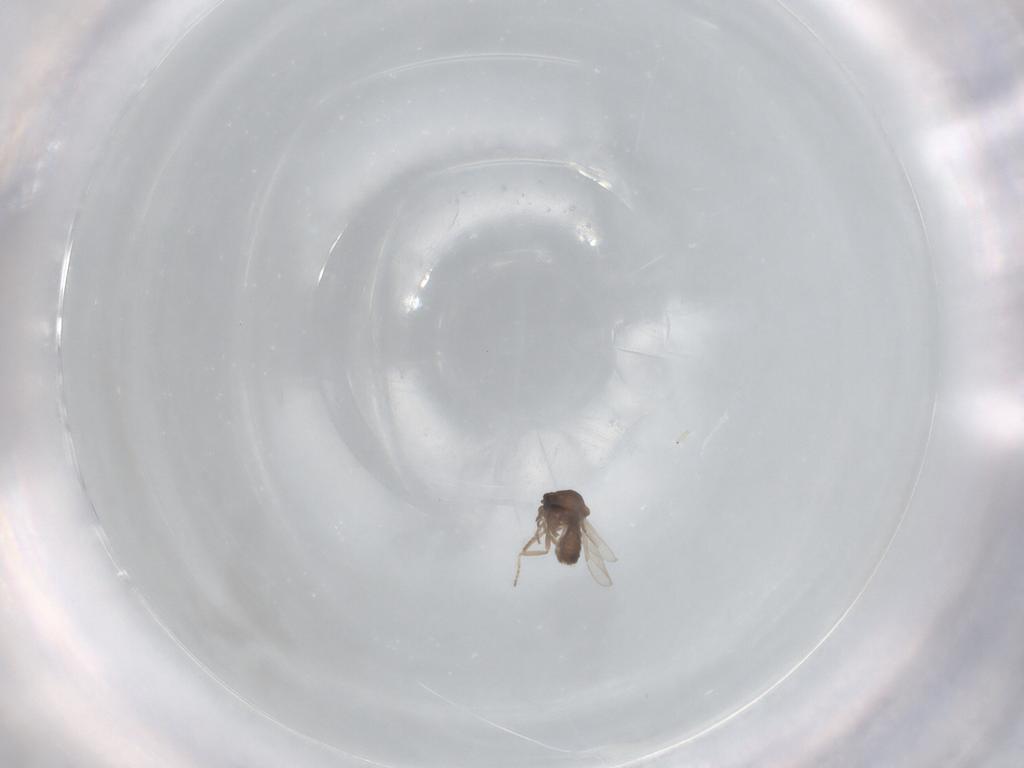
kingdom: Animalia
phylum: Arthropoda
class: Insecta
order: Diptera
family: Ceratopogonidae
